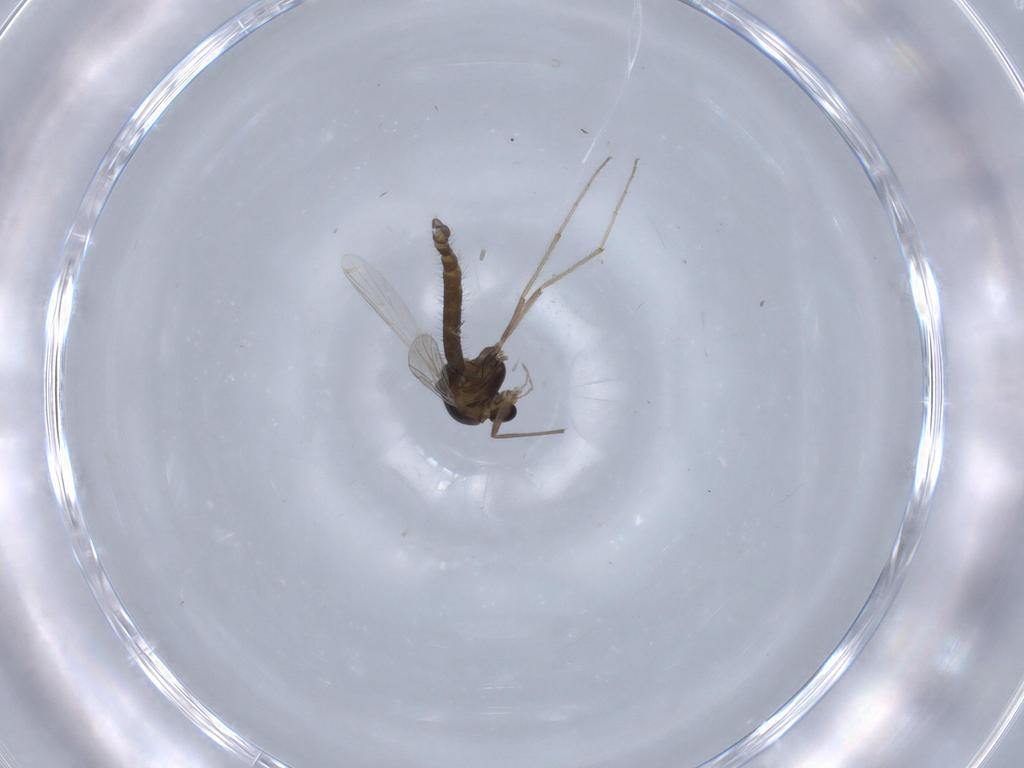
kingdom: Animalia
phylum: Arthropoda
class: Insecta
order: Diptera
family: Chironomidae
